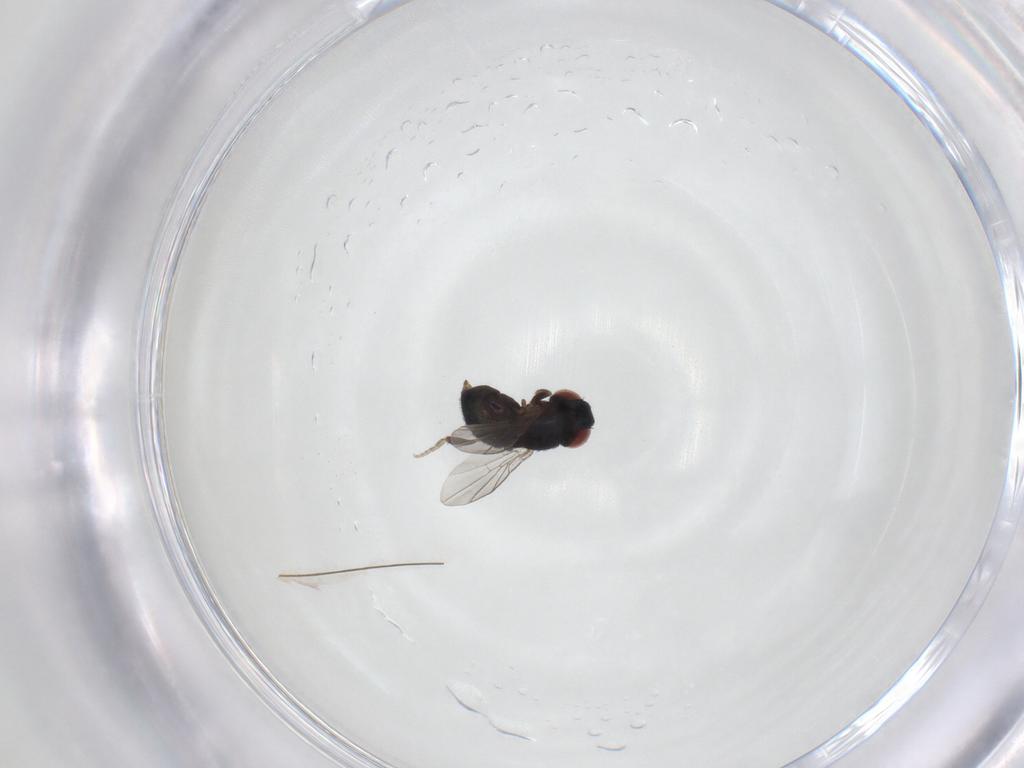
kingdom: Animalia
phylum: Arthropoda
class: Insecta
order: Diptera
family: Cryptochetidae
